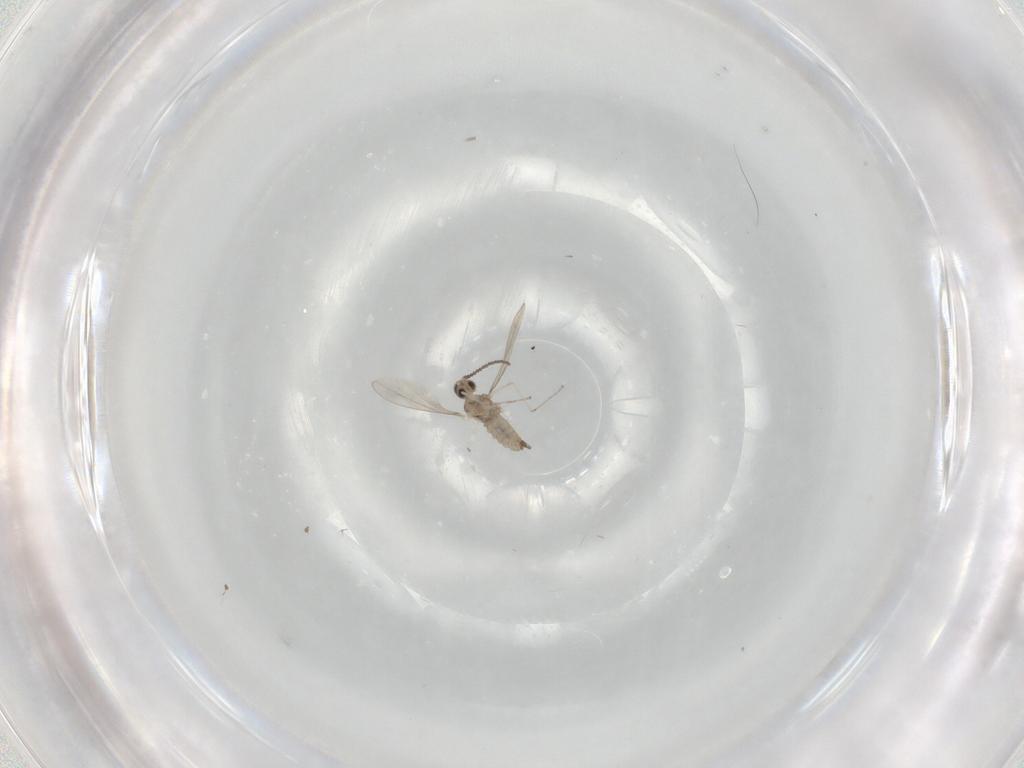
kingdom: Animalia
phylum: Arthropoda
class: Insecta
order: Diptera
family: Cecidomyiidae
